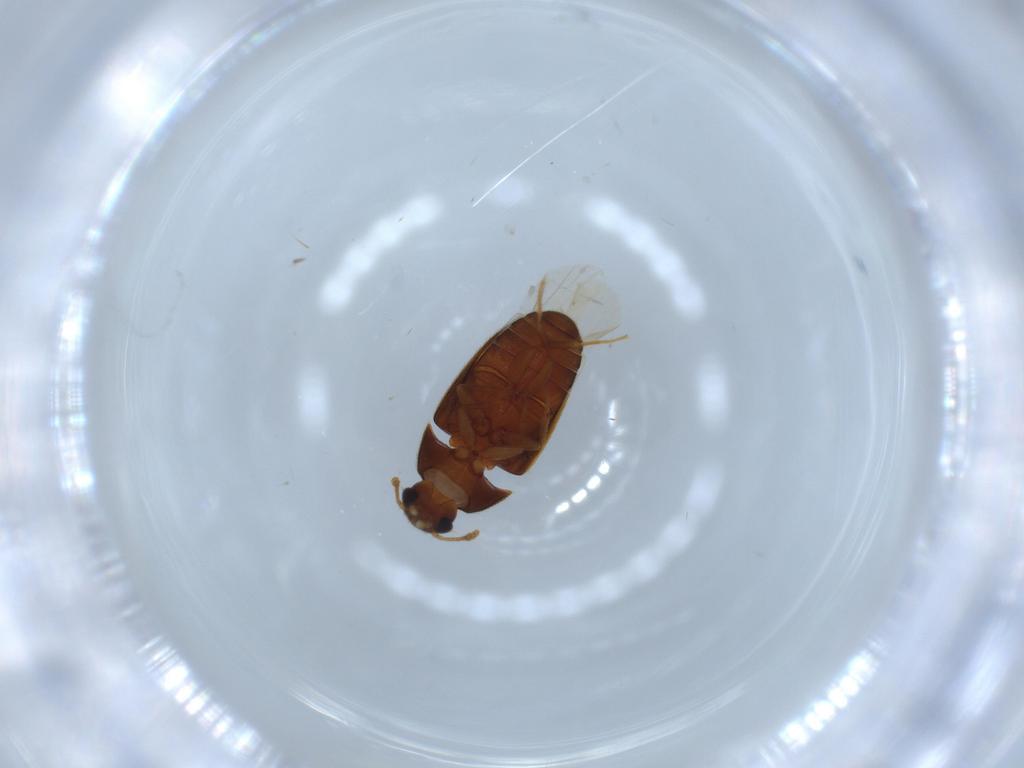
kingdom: Animalia
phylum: Arthropoda
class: Insecta
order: Coleoptera
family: Mycetophagidae
